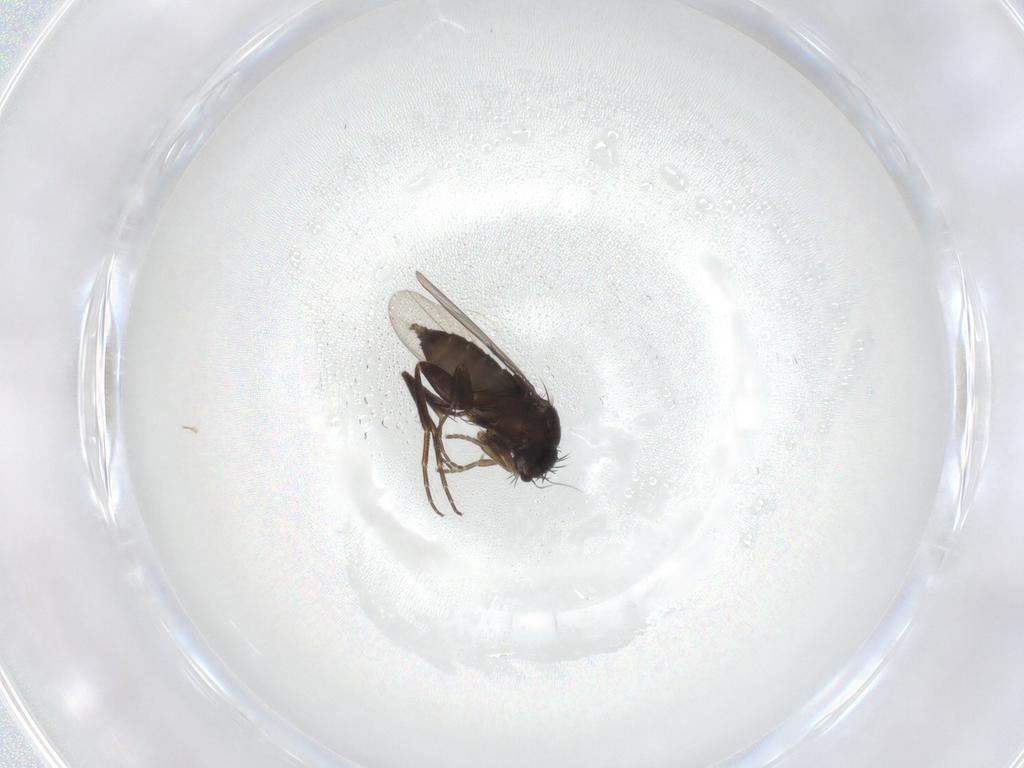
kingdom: Animalia
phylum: Arthropoda
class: Insecta
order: Diptera
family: Phoridae
